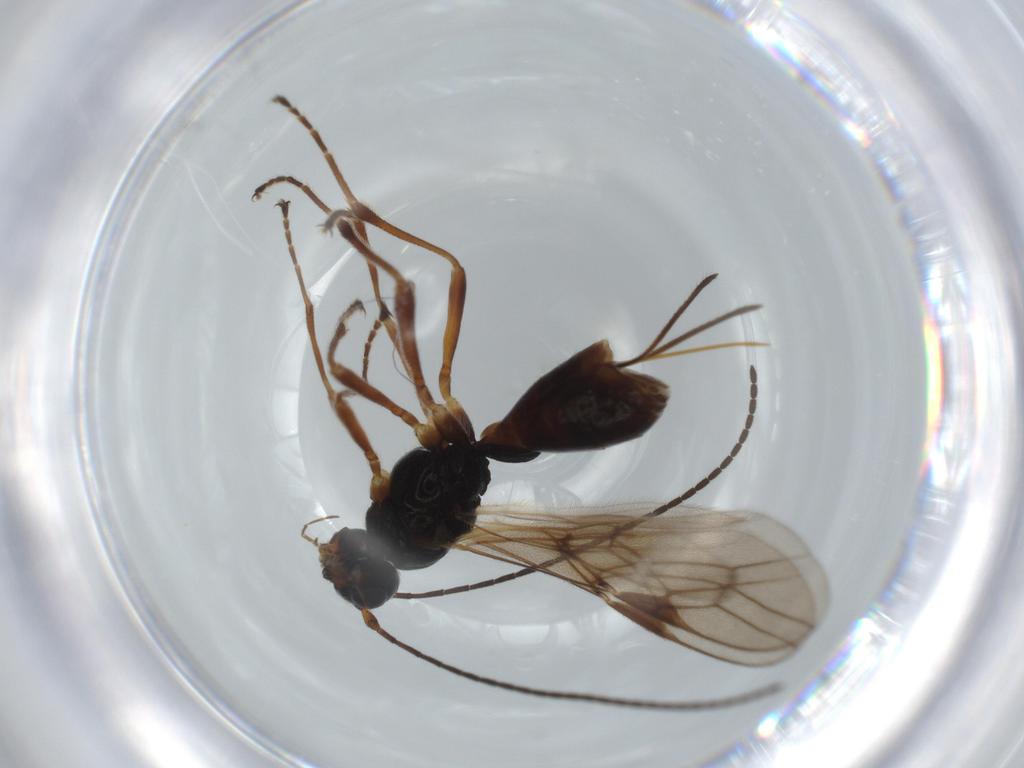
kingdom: Animalia
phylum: Arthropoda
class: Insecta
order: Hymenoptera
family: Braconidae
